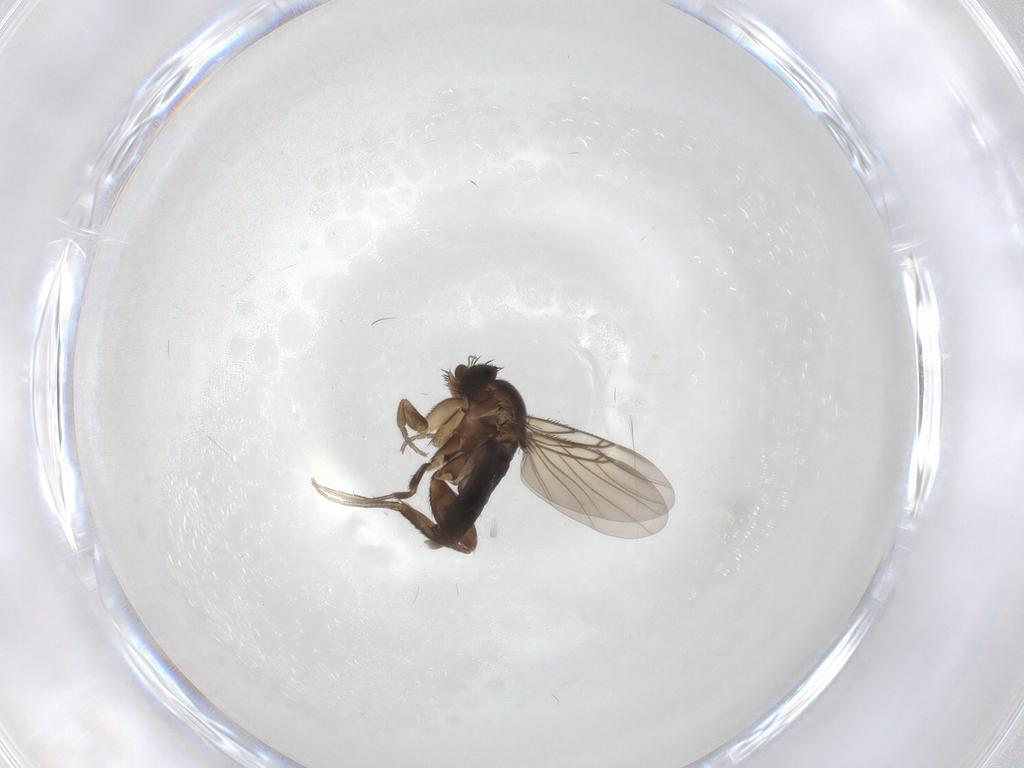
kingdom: Animalia
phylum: Arthropoda
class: Insecta
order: Diptera
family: Phoridae
